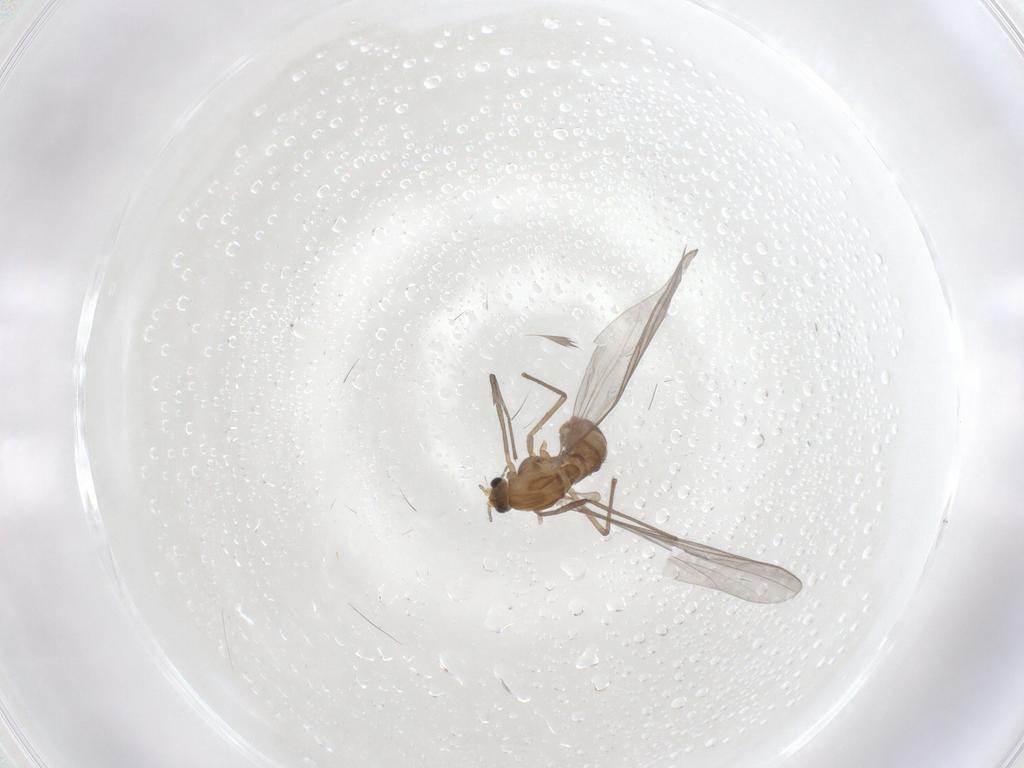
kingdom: Animalia
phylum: Arthropoda
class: Insecta
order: Diptera
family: Chironomidae
